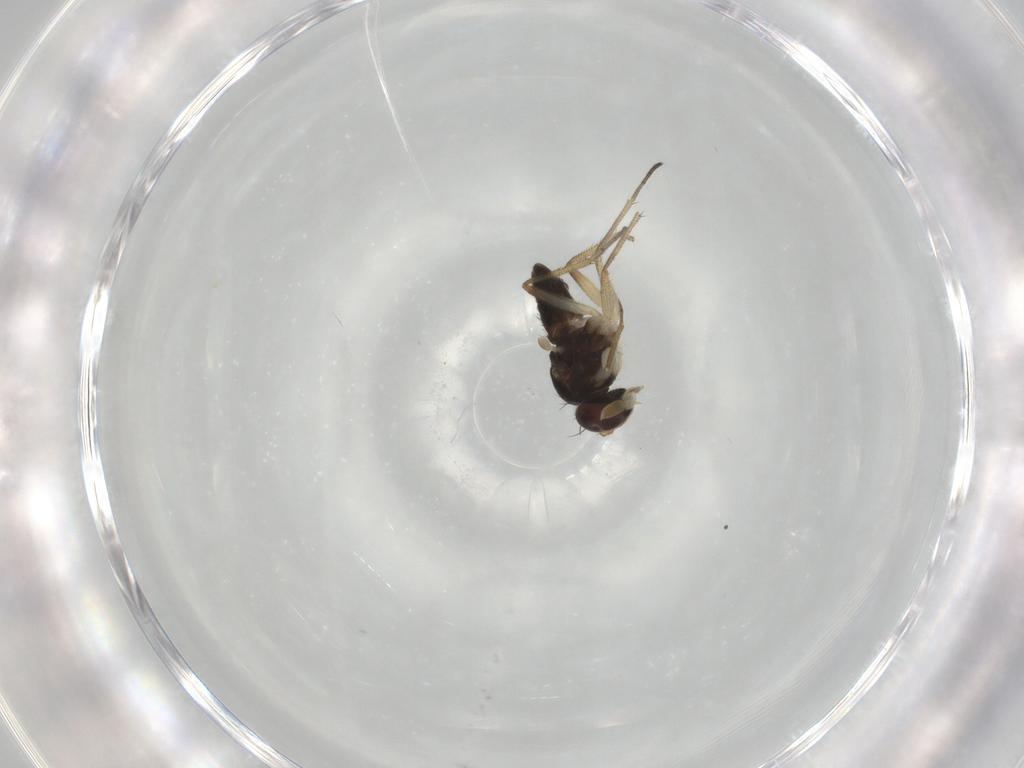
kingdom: Animalia
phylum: Arthropoda
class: Insecta
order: Diptera
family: Dolichopodidae
